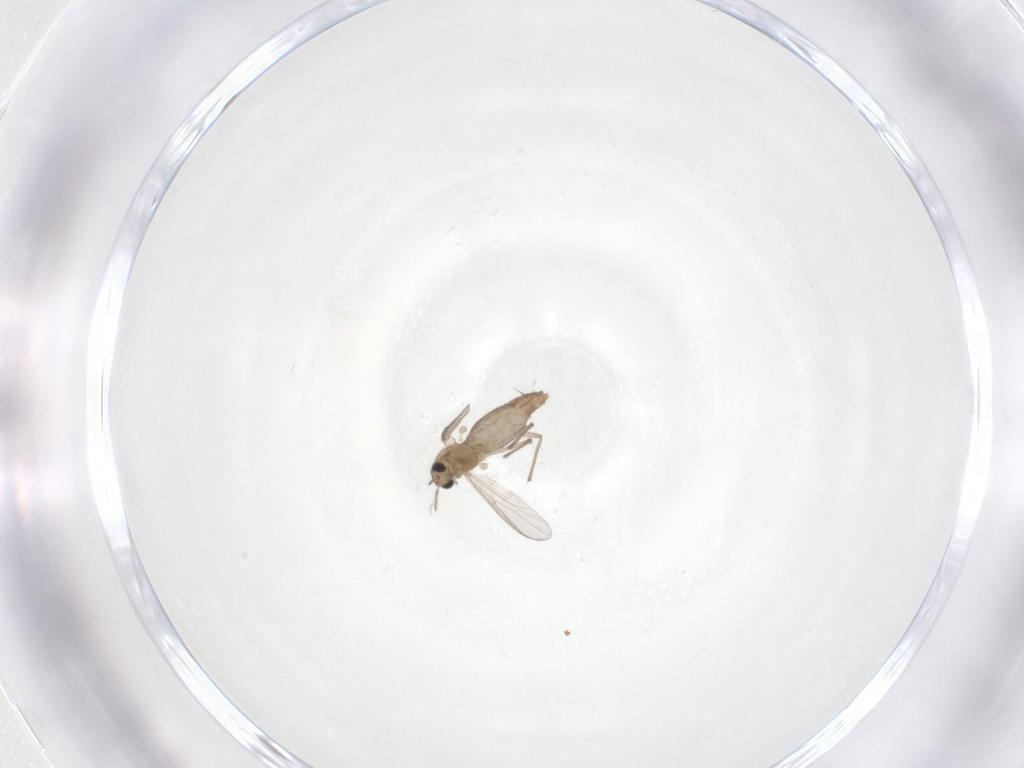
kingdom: Animalia
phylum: Arthropoda
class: Insecta
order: Diptera
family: Chironomidae
